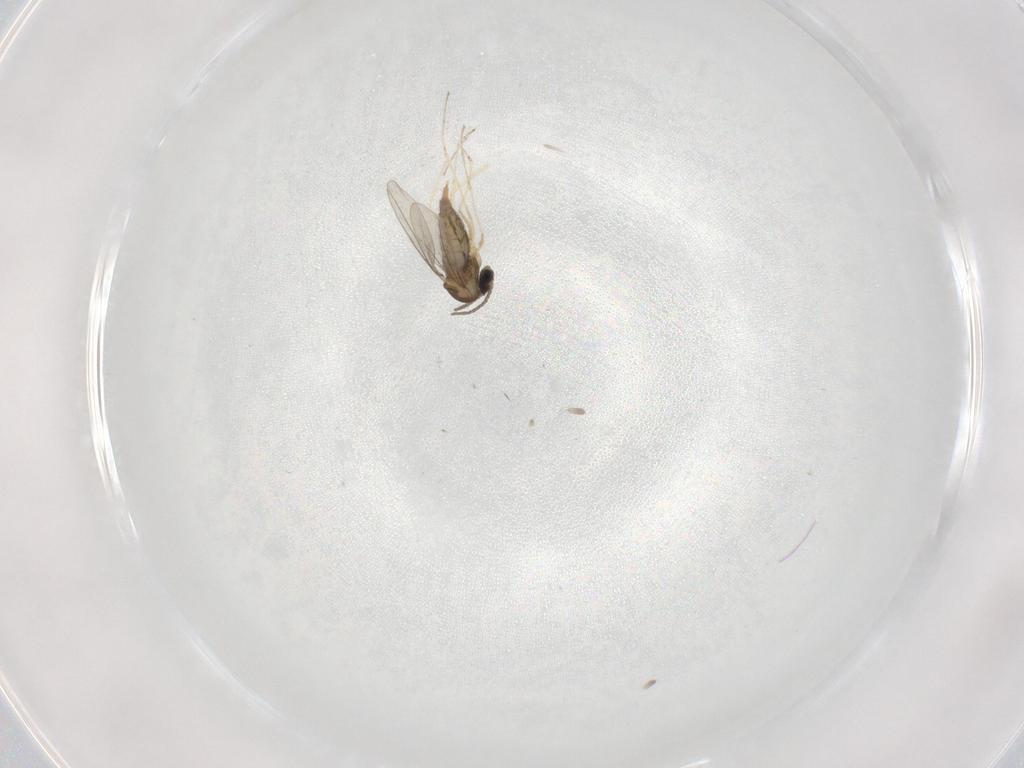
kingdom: Animalia
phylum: Arthropoda
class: Insecta
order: Diptera
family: Cecidomyiidae
